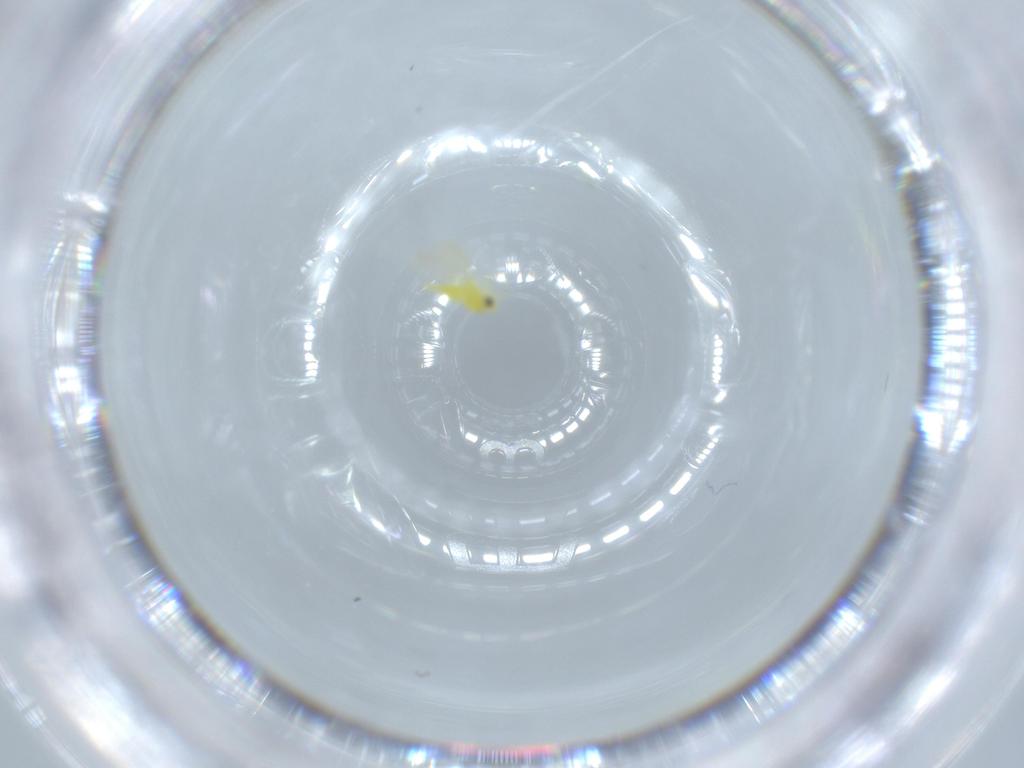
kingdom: Animalia
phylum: Arthropoda
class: Insecta
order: Hemiptera
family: Aleyrodidae
